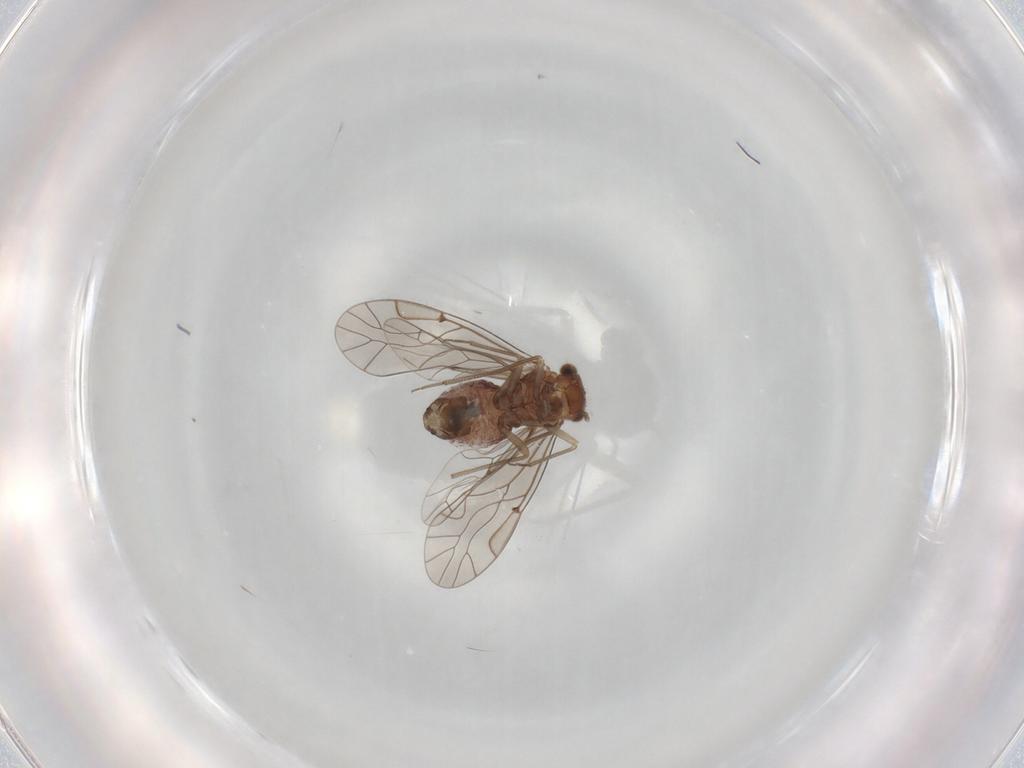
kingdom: Animalia
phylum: Arthropoda
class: Insecta
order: Psocodea
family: Lachesillidae
